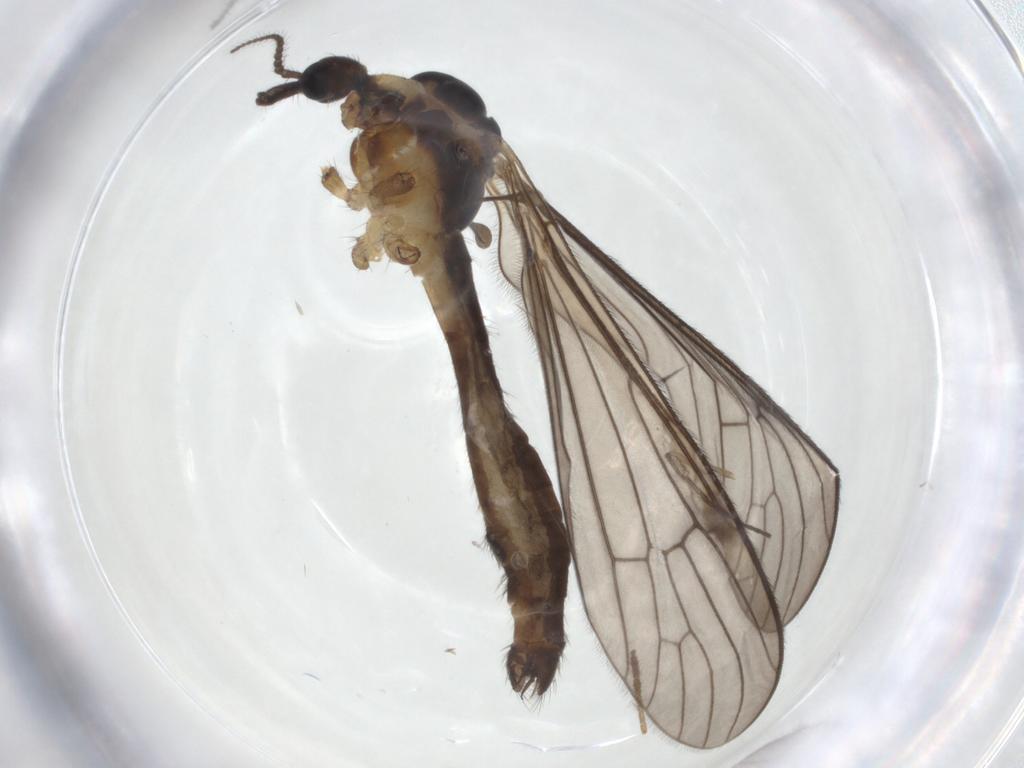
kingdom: Animalia
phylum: Arthropoda
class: Insecta
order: Diptera
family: Limoniidae
